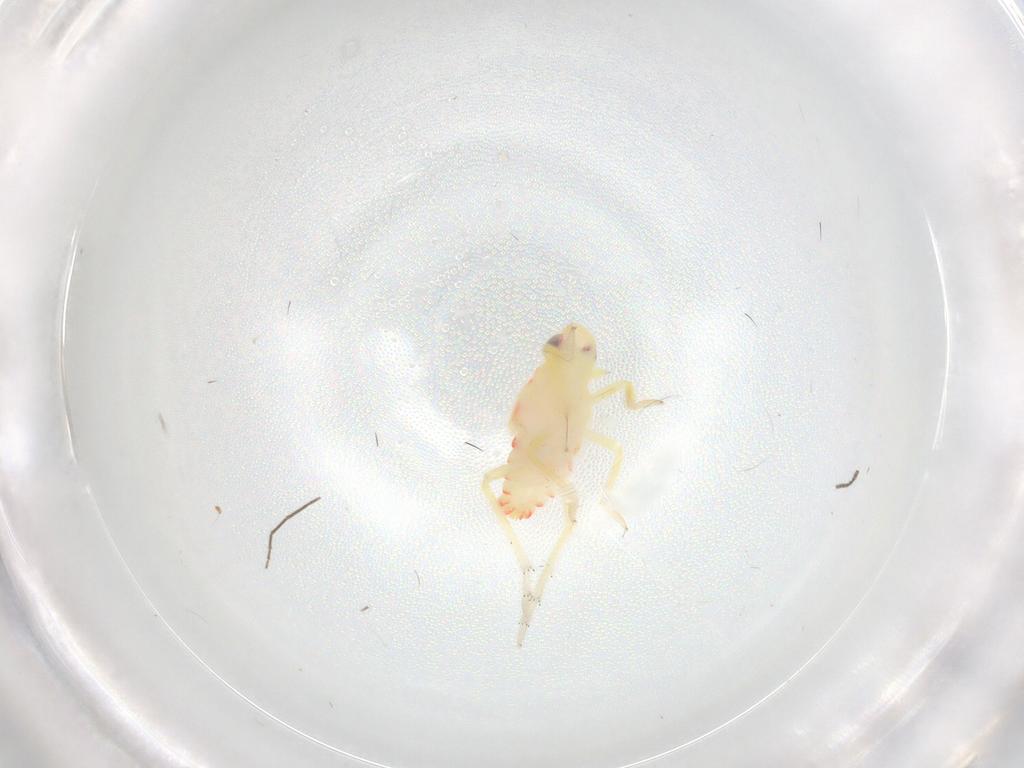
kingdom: Animalia
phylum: Arthropoda
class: Insecta
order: Hemiptera
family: Tropiduchidae
